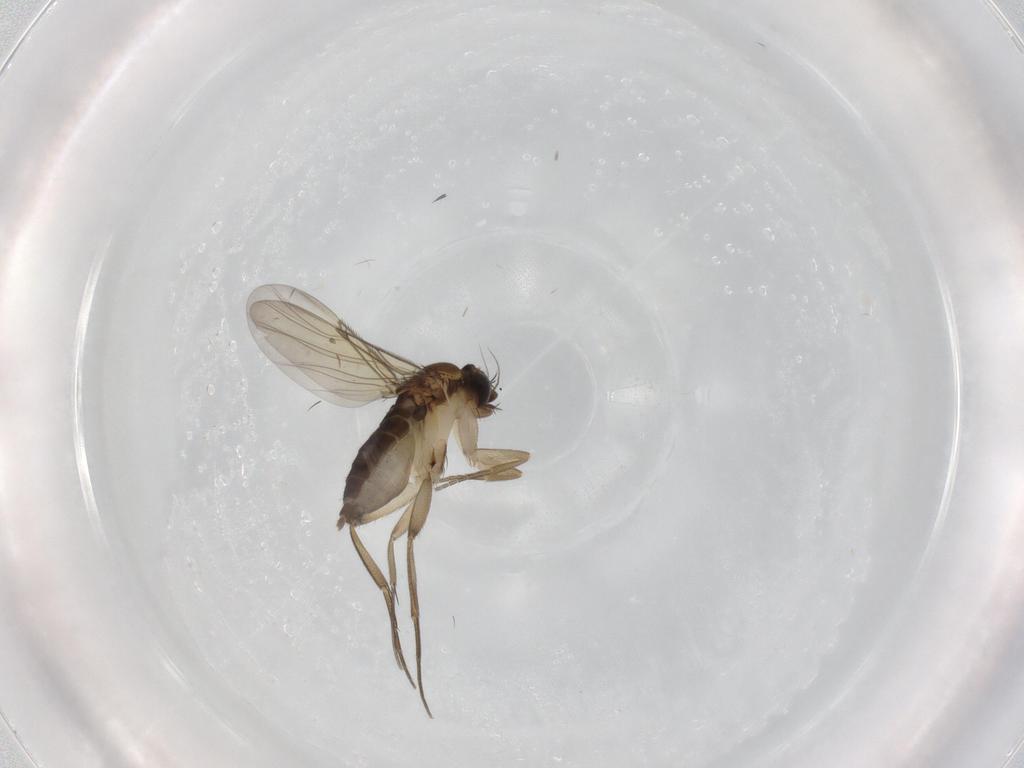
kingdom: Animalia
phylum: Arthropoda
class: Insecta
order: Diptera
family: Phoridae
